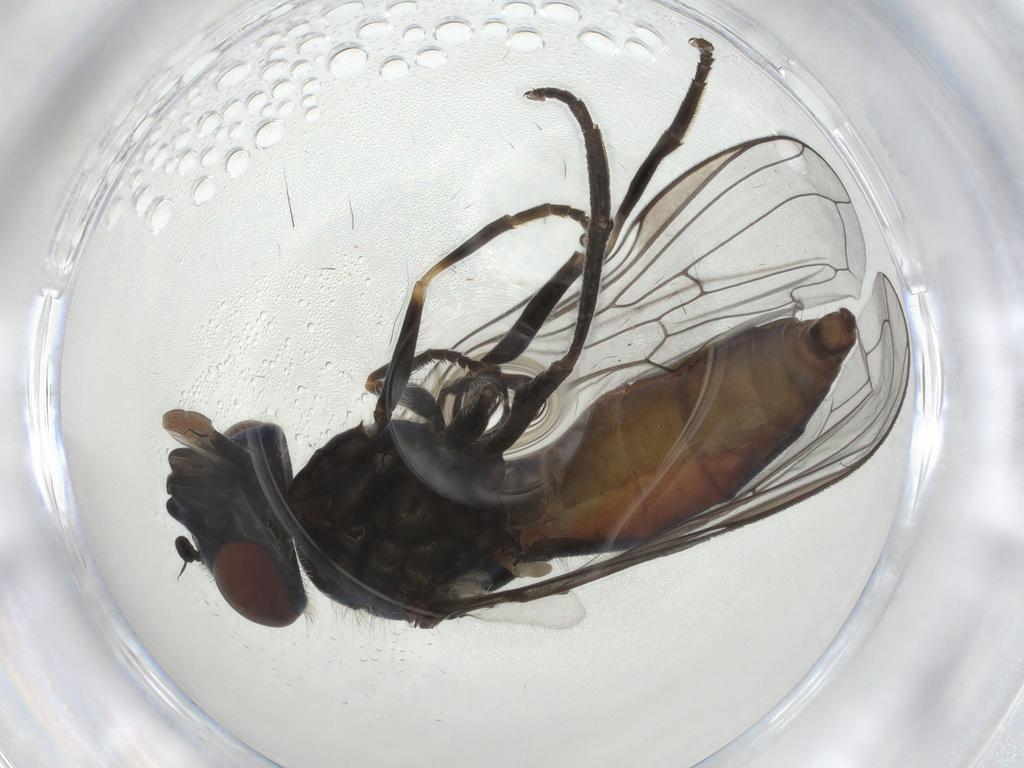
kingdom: Animalia
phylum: Arthropoda
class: Insecta
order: Diptera
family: Syrphidae
